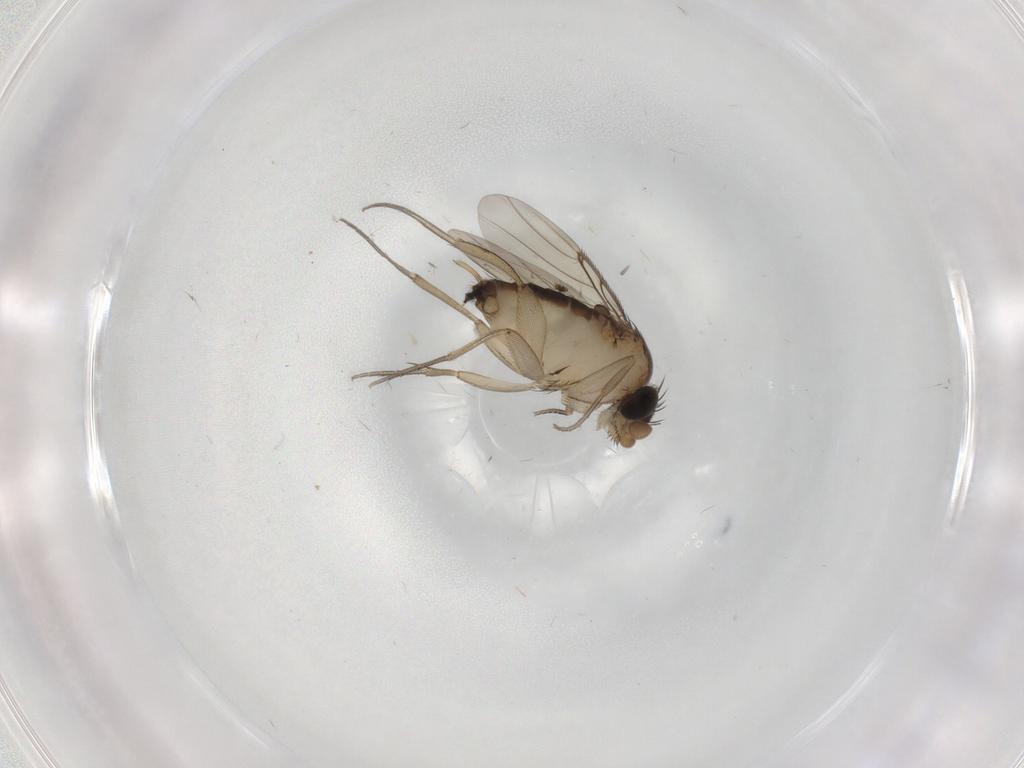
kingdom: Animalia
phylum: Arthropoda
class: Insecta
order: Diptera
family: Phoridae
